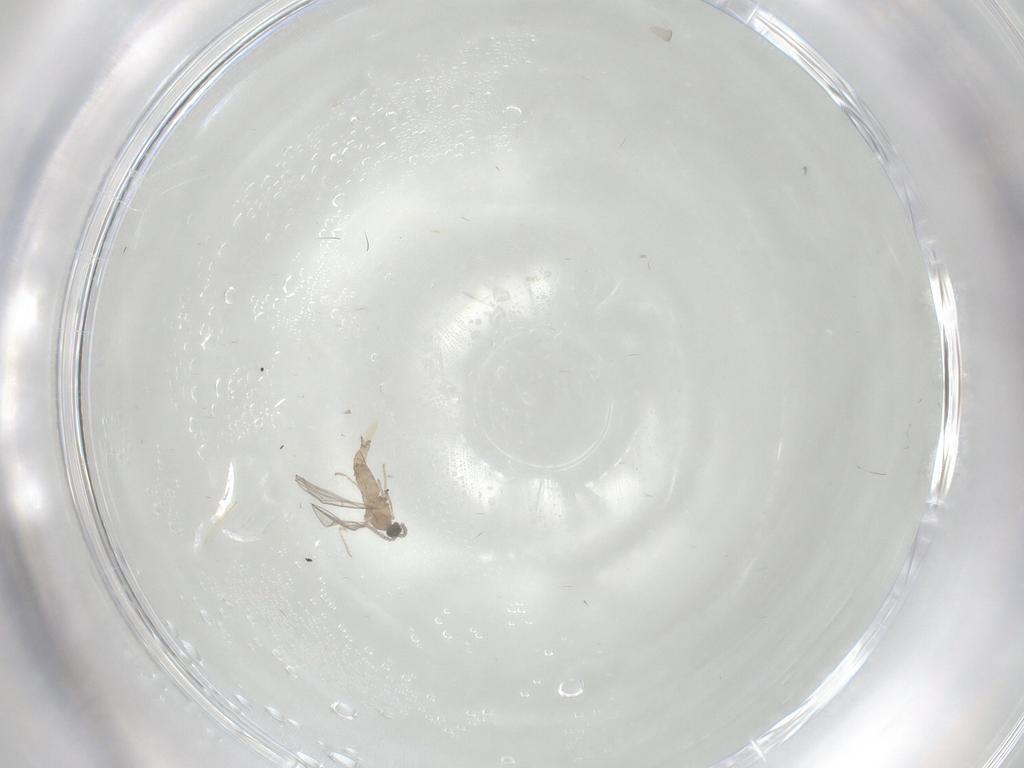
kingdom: Animalia
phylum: Arthropoda
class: Insecta
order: Diptera
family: Cecidomyiidae
